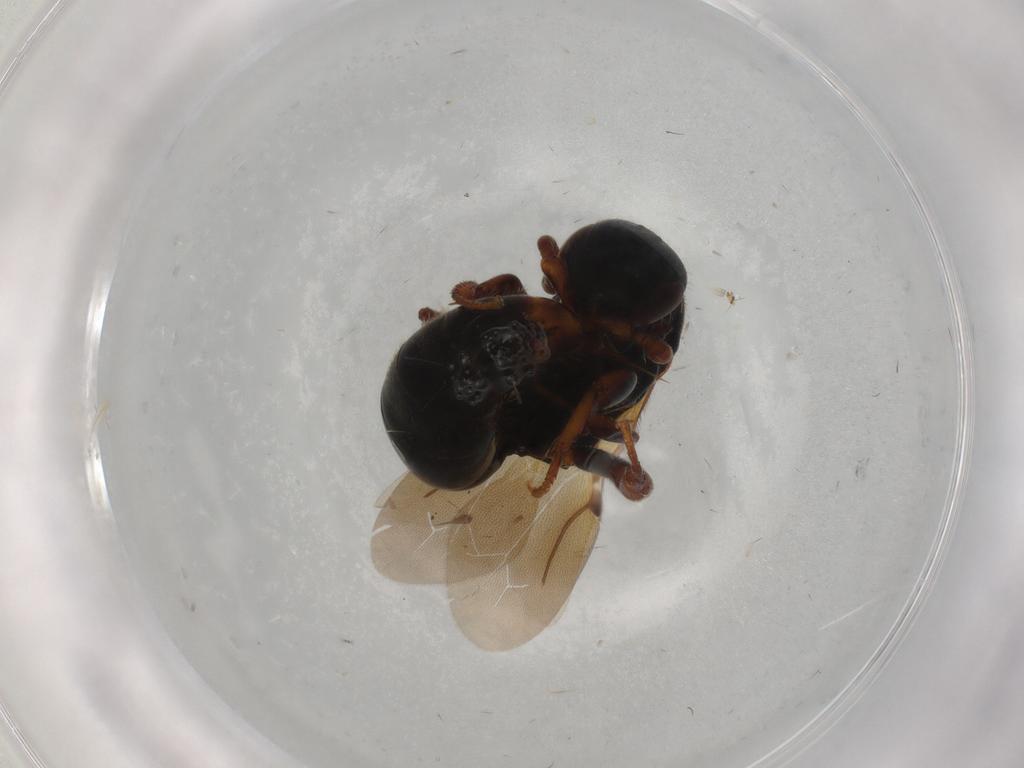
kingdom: Animalia
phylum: Arthropoda
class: Insecta
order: Hymenoptera
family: Bethylidae
